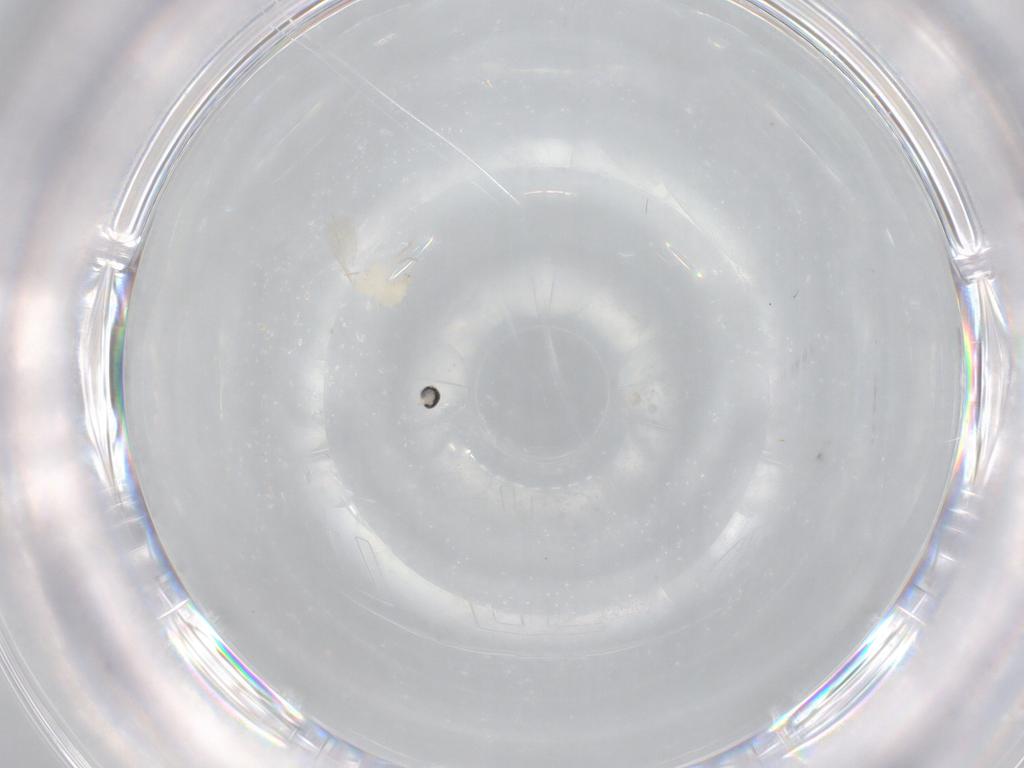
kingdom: Animalia
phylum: Arthropoda
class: Insecta
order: Diptera
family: Cecidomyiidae
